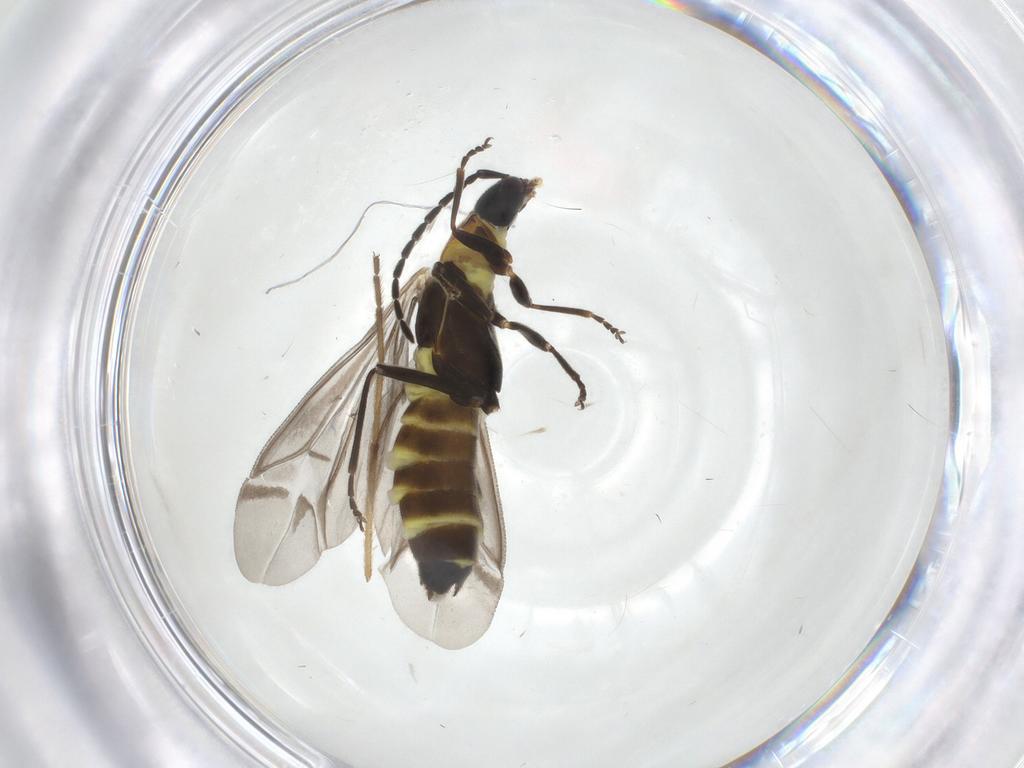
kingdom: Animalia
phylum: Arthropoda
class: Insecta
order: Coleoptera
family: Cantharidae
